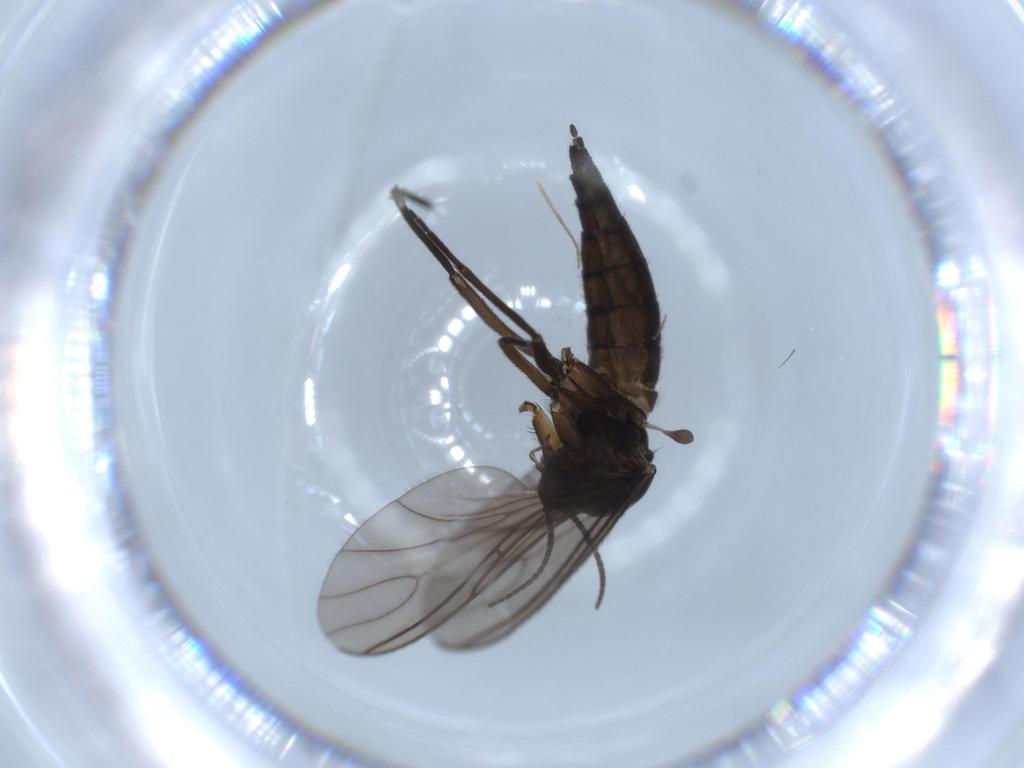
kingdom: Animalia
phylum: Arthropoda
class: Insecta
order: Diptera
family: Sciaridae
